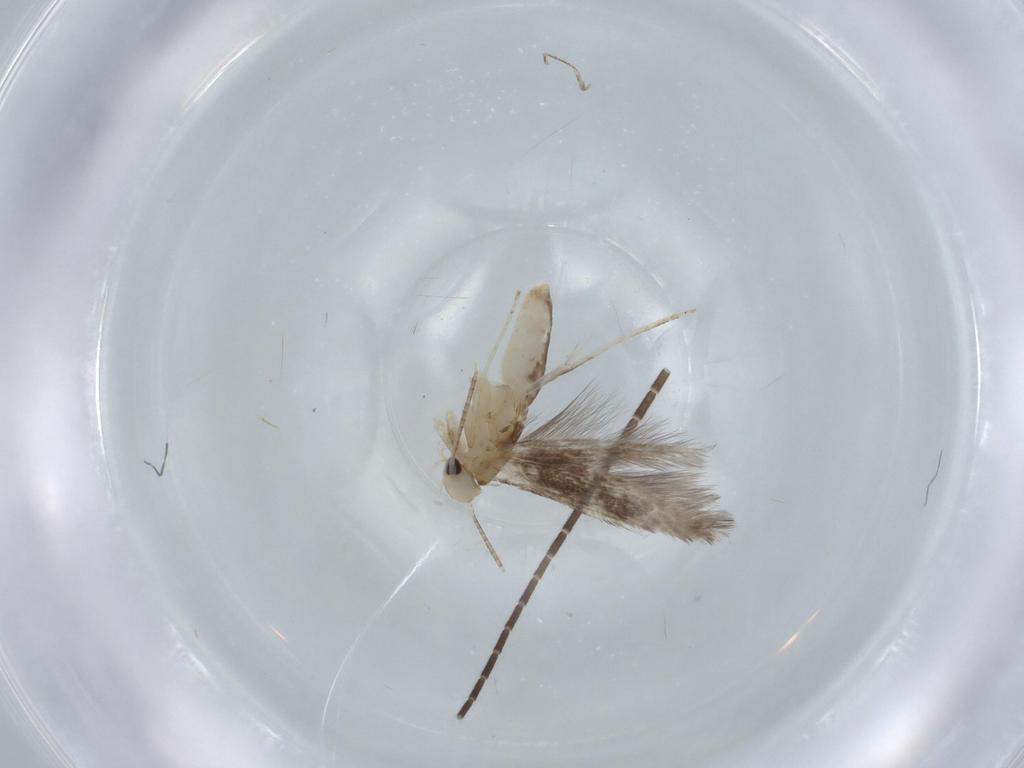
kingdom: Animalia
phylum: Arthropoda
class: Insecta
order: Lepidoptera
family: Gracillariidae
